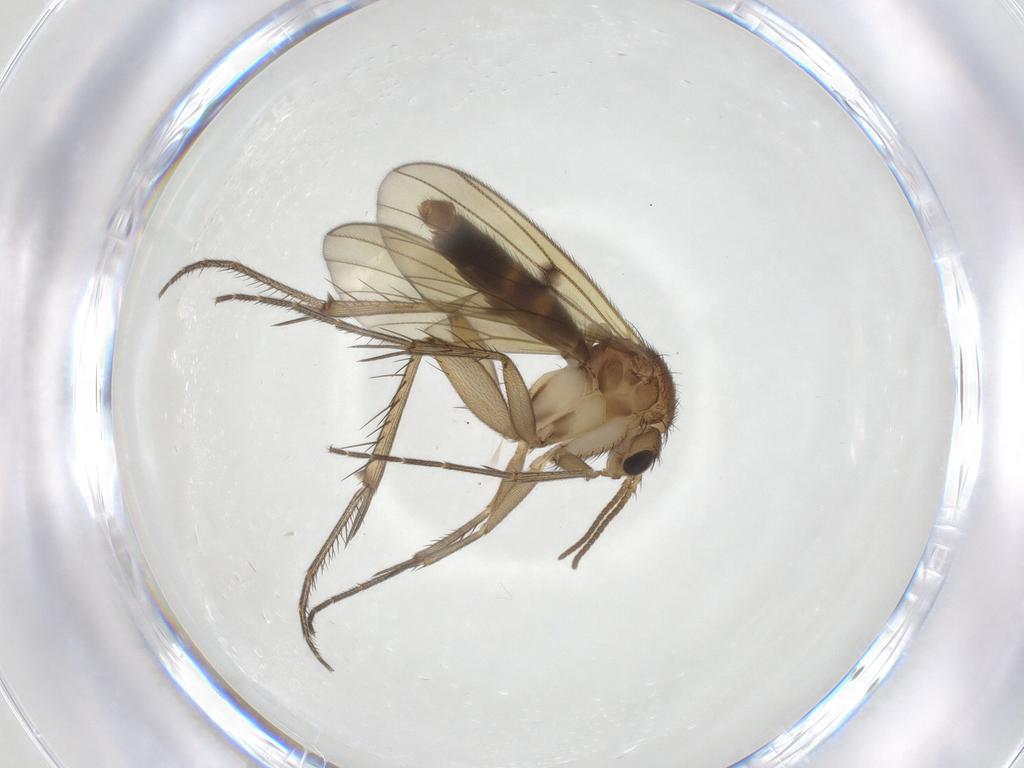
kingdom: Animalia
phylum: Arthropoda
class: Insecta
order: Diptera
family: Mycetophilidae
